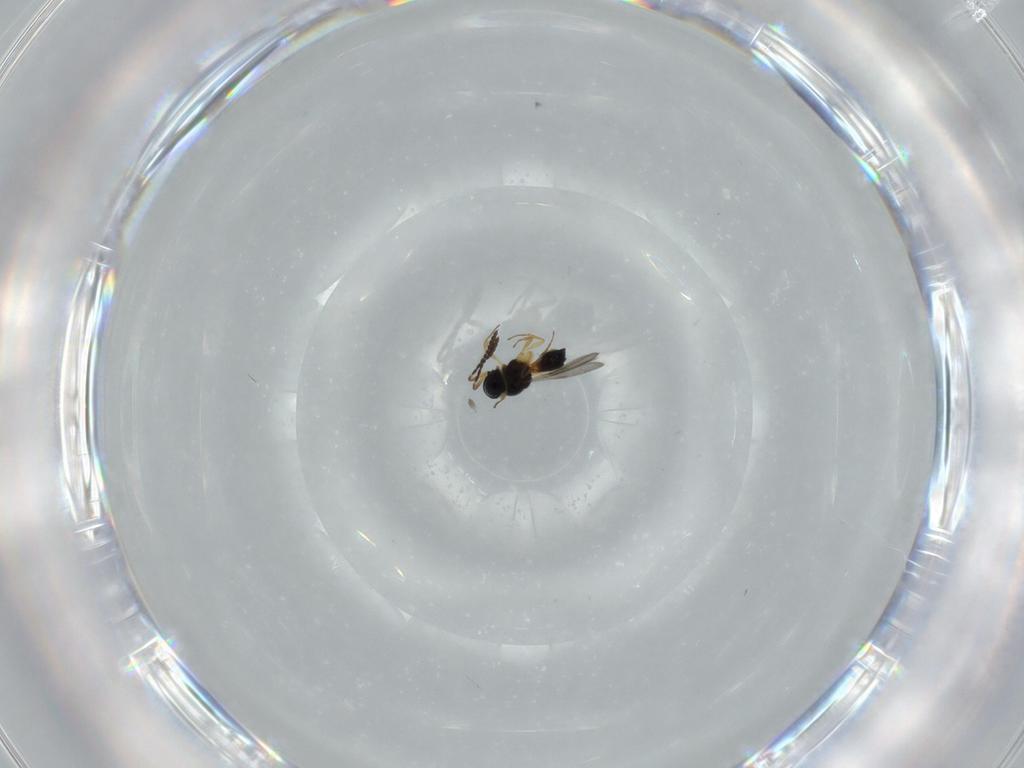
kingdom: Animalia
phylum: Arthropoda
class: Insecta
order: Hymenoptera
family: Scelionidae
